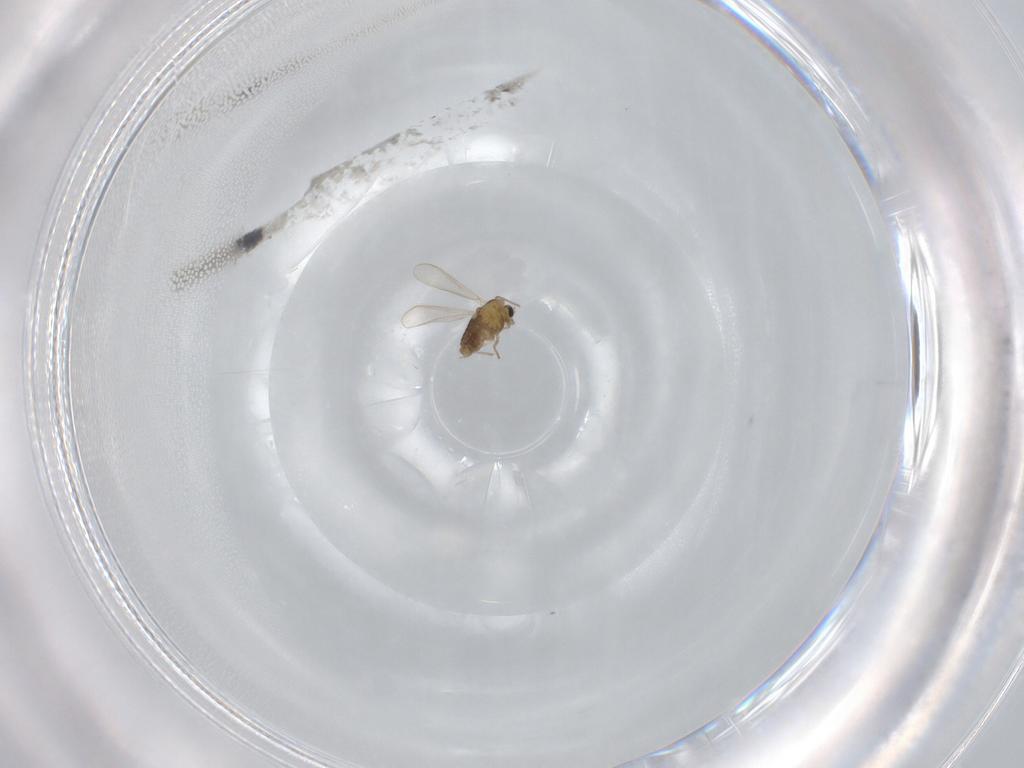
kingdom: Animalia
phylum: Arthropoda
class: Insecta
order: Diptera
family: Chironomidae
